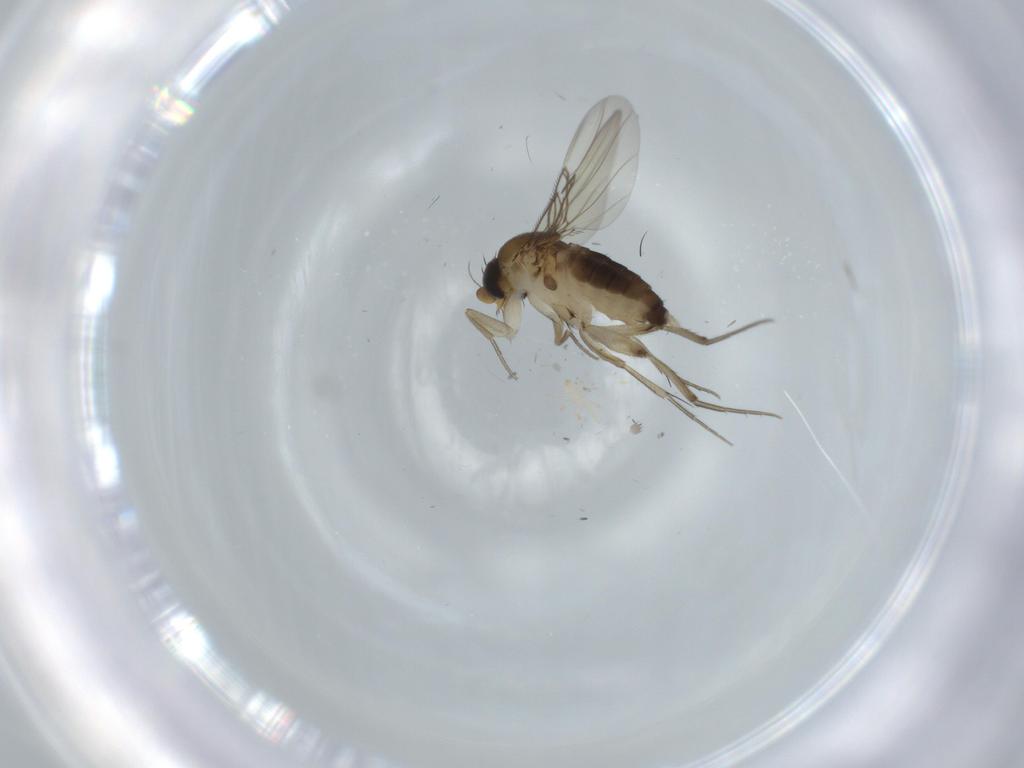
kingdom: Animalia
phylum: Arthropoda
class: Insecta
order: Diptera
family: Phoridae
